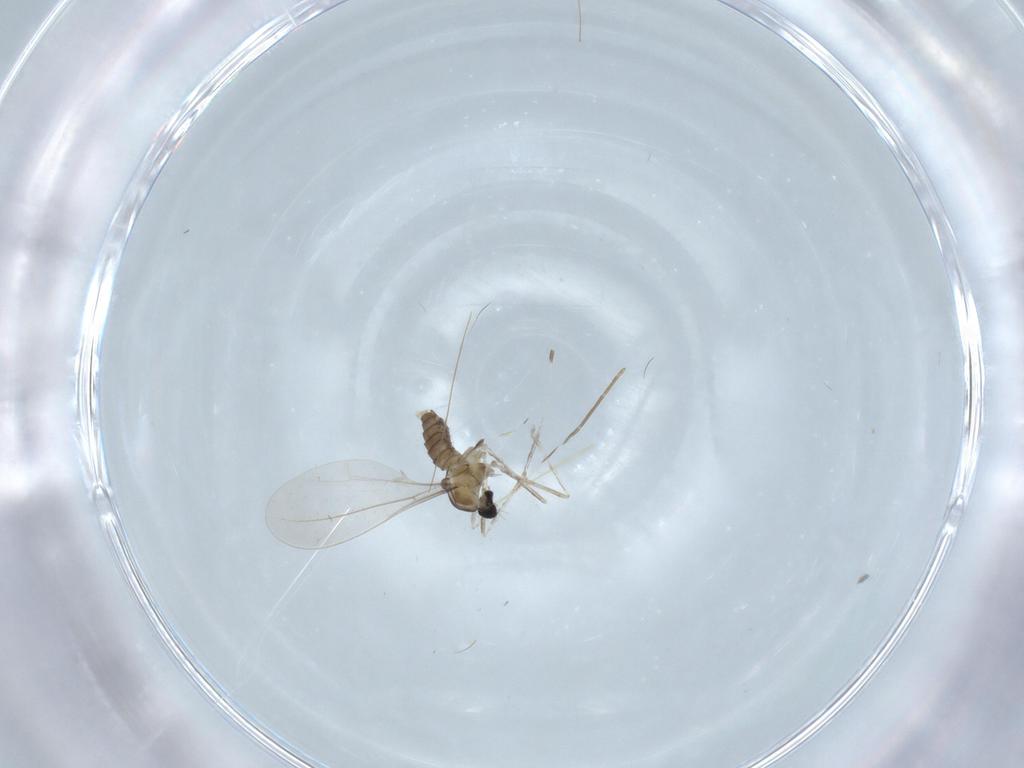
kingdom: Animalia
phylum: Arthropoda
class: Insecta
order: Diptera
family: Cecidomyiidae
